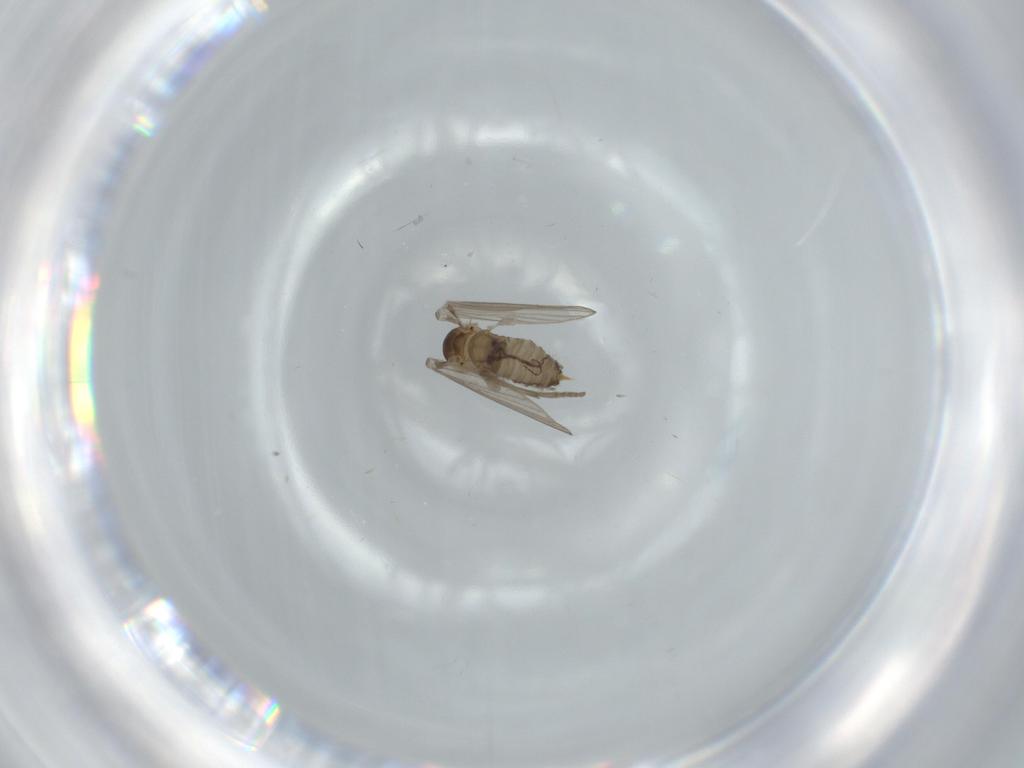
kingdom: Animalia
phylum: Arthropoda
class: Insecta
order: Diptera
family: Psychodidae
